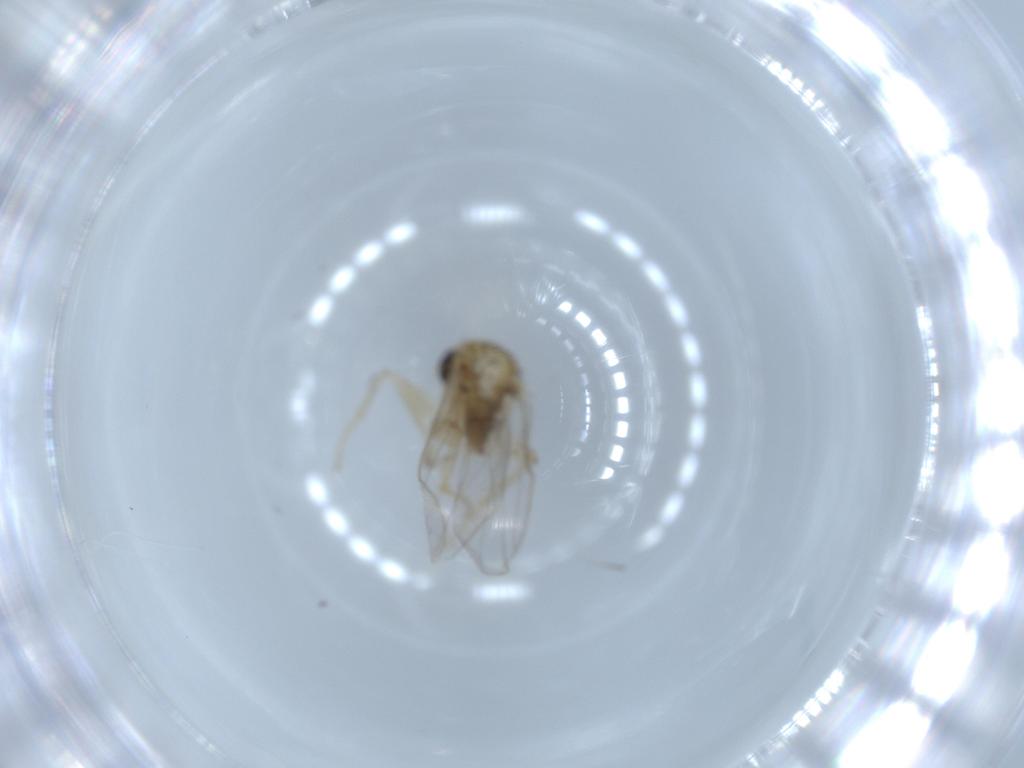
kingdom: Animalia
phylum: Arthropoda
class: Insecta
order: Diptera
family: Hybotidae
